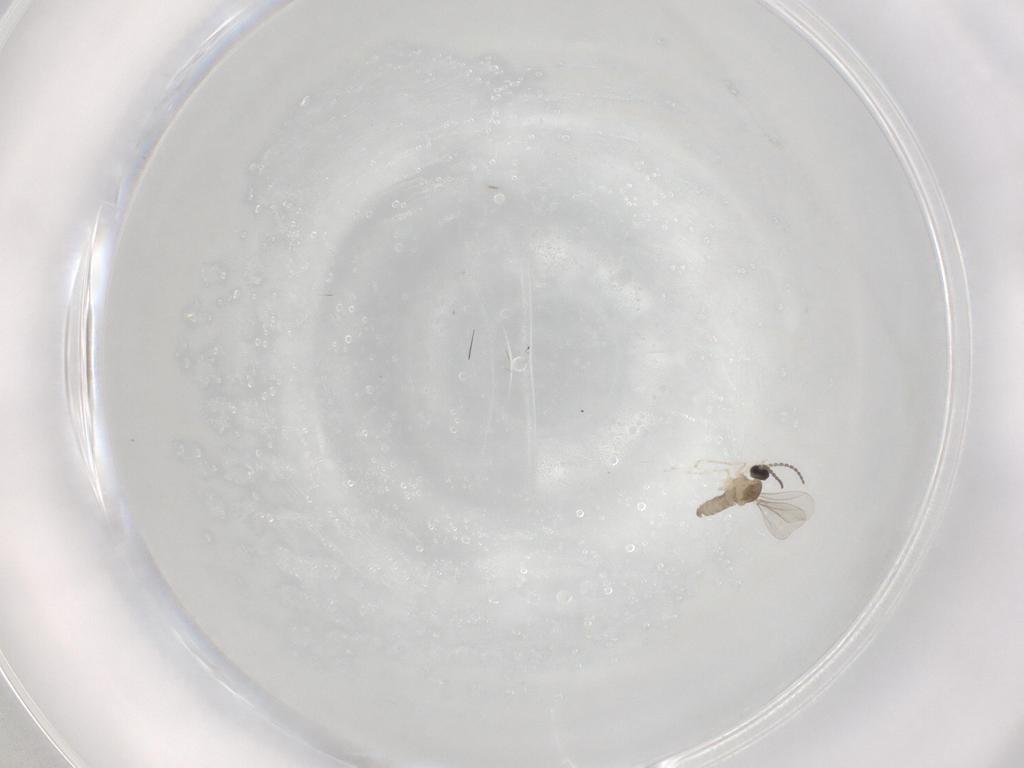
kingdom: Animalia
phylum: Arthropoda
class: Insecta
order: Diptera
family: Cecidomyiidae
